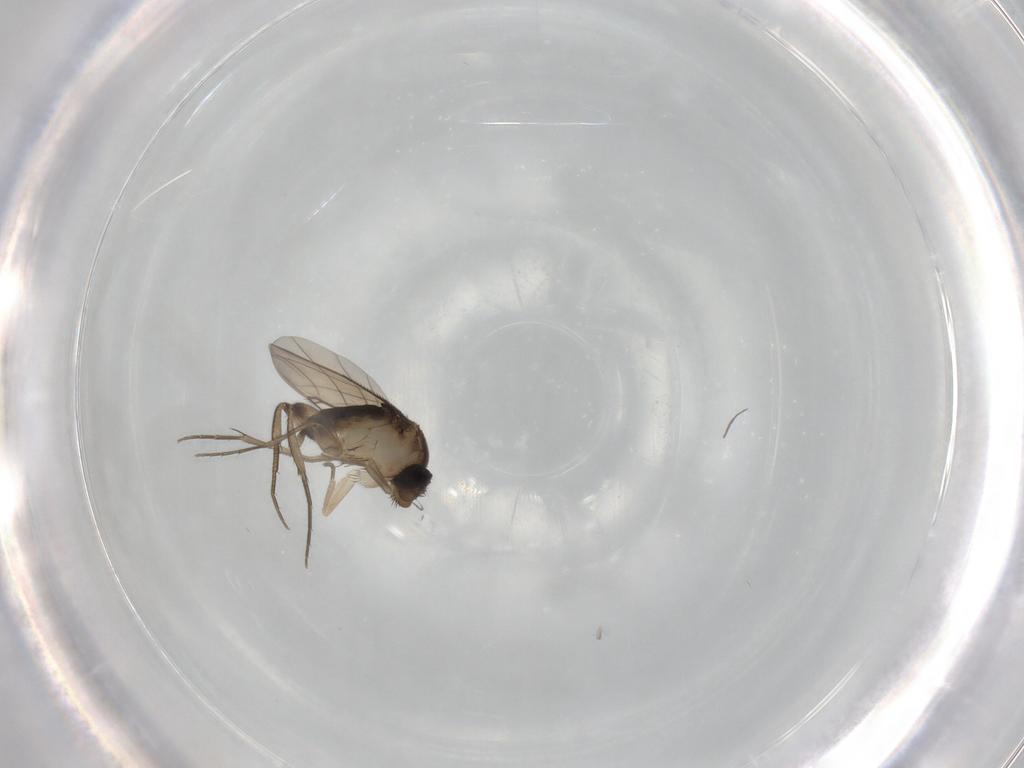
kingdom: Animalia
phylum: Arthropoda
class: Insecta
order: Diptera
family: Phoridae
